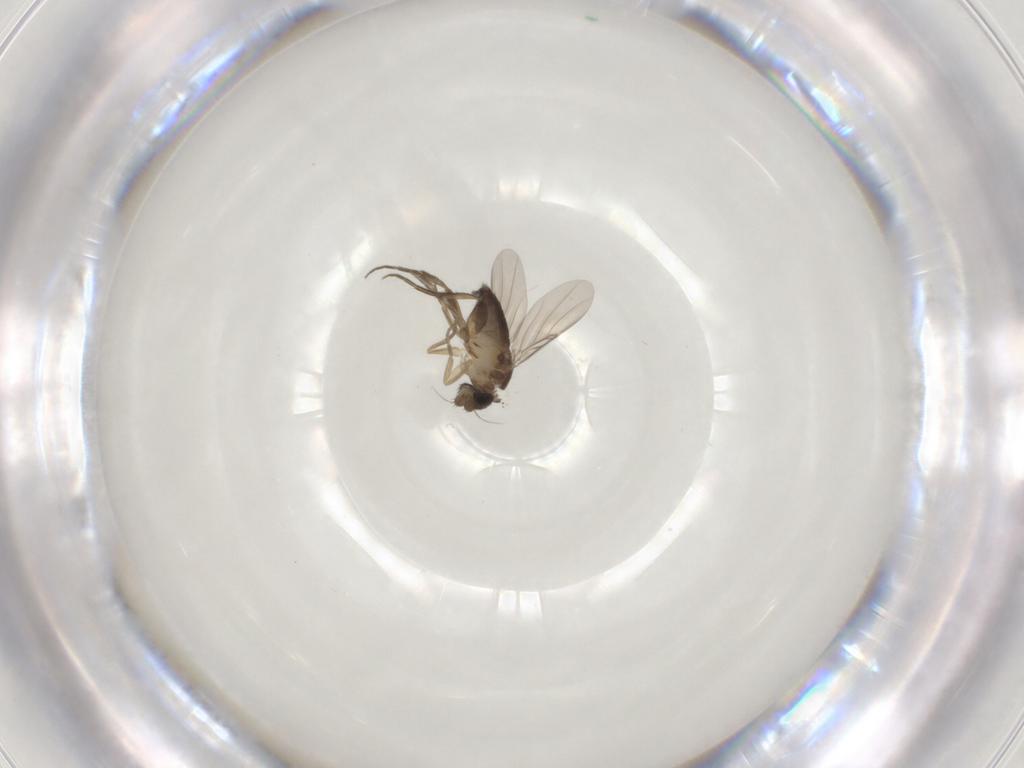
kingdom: Animalia
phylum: Arthropoda
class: Insecta
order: Diptera
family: Phoridae
